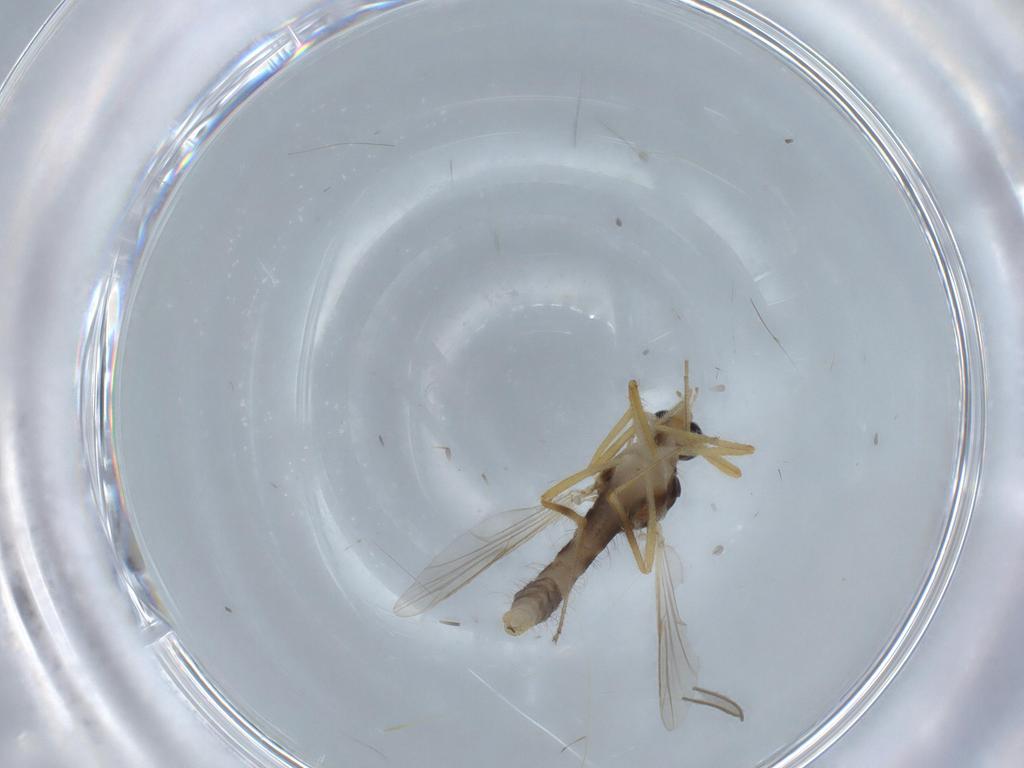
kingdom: Animalia
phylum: Arthropoda
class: Insecta
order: Diptera
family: Ceratopogonidae
